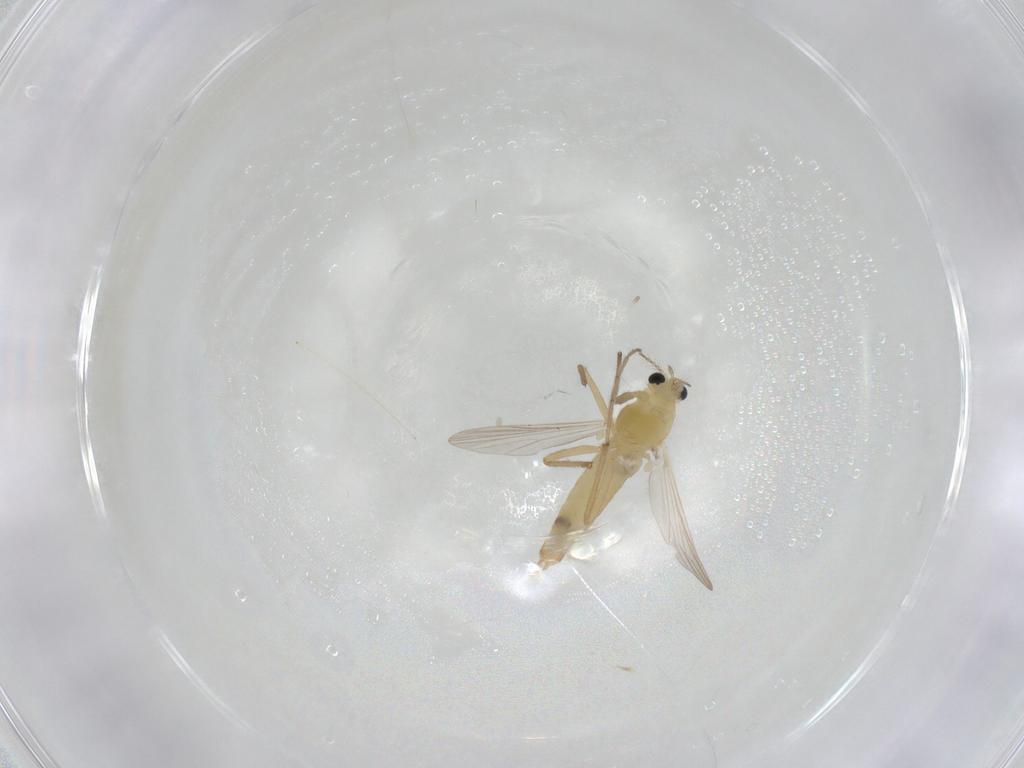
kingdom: Animalia
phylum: Arthropoda
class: Insecta
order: Diptera
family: Chironomidae
